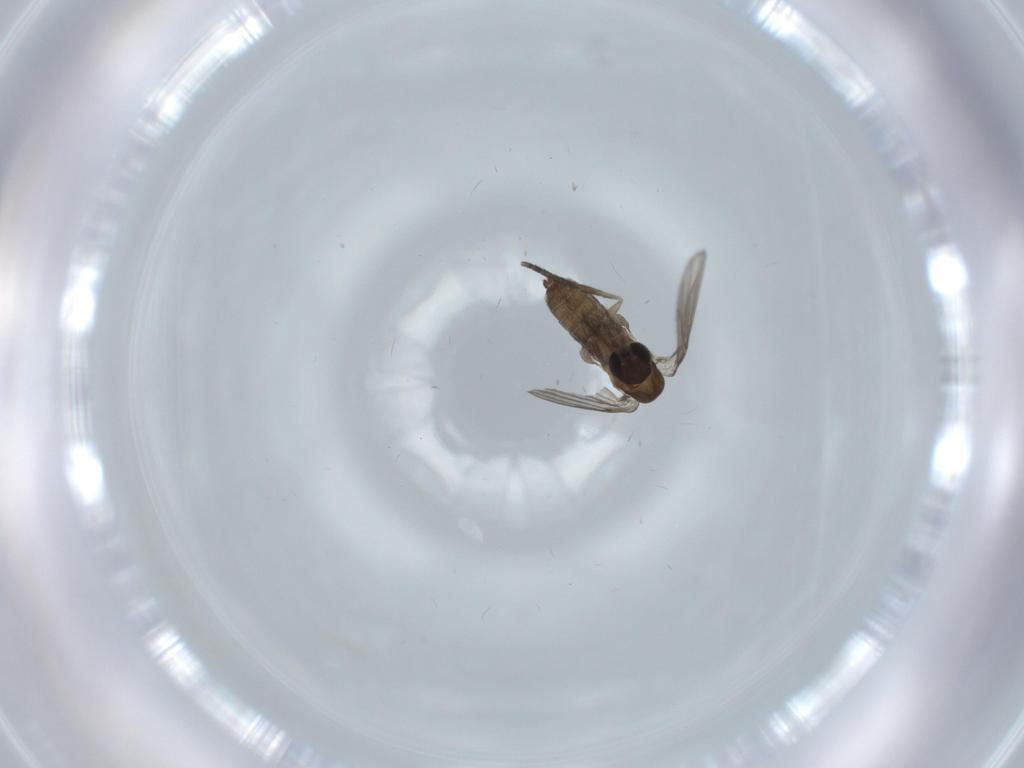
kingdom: Animalia
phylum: Arthropoda
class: Insecta
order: Diptera
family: Psychodidae
